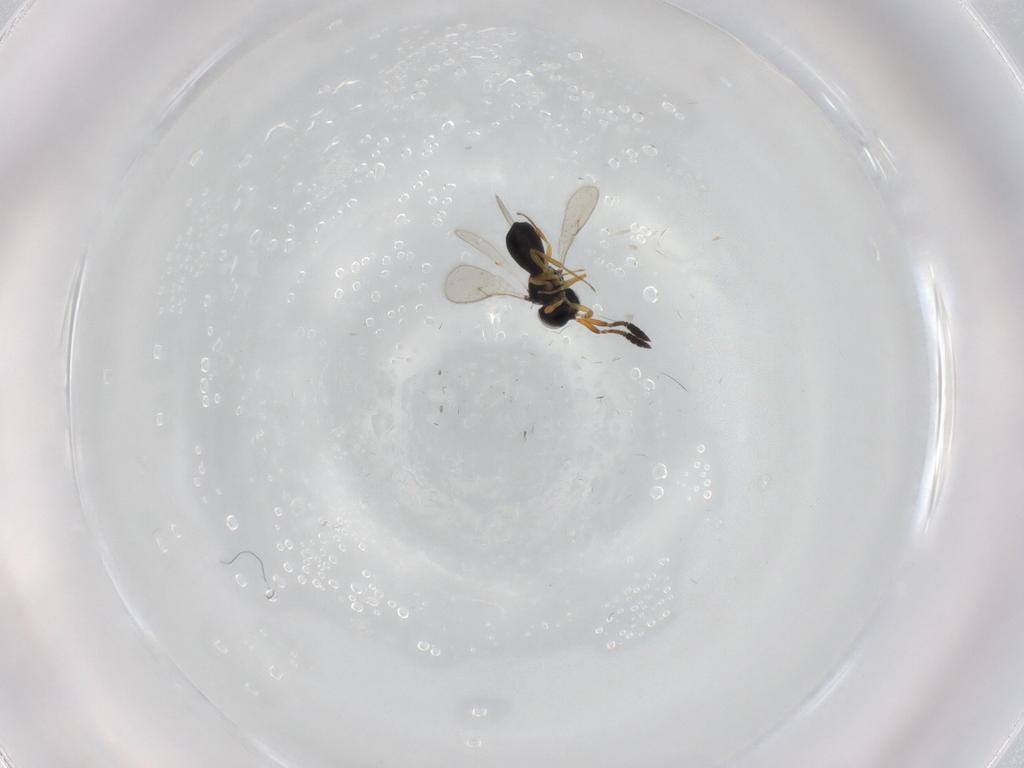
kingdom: Animalia
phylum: Arthropoda
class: Insecta
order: Hymenoptera
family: Scelionidae
